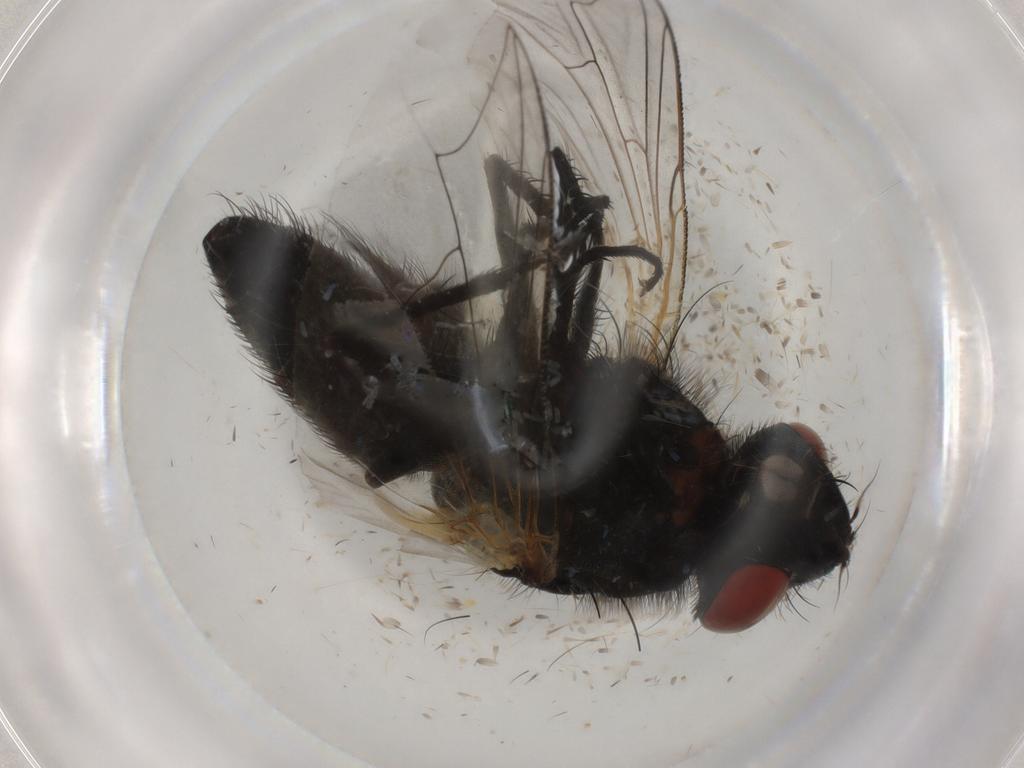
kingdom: Animalia
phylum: Arthropoda
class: Insecta
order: Diptera
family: Sarcophagidae
